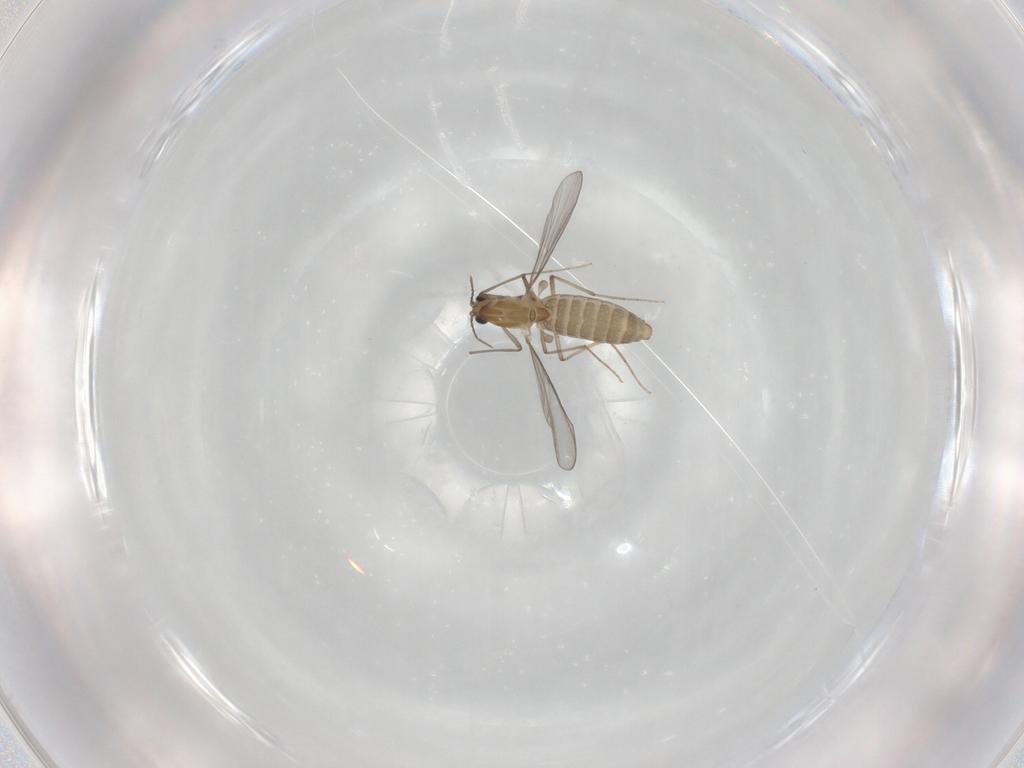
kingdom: Animalia
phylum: Arthropoda
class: Insecta
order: Diptera
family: Chironomidae
